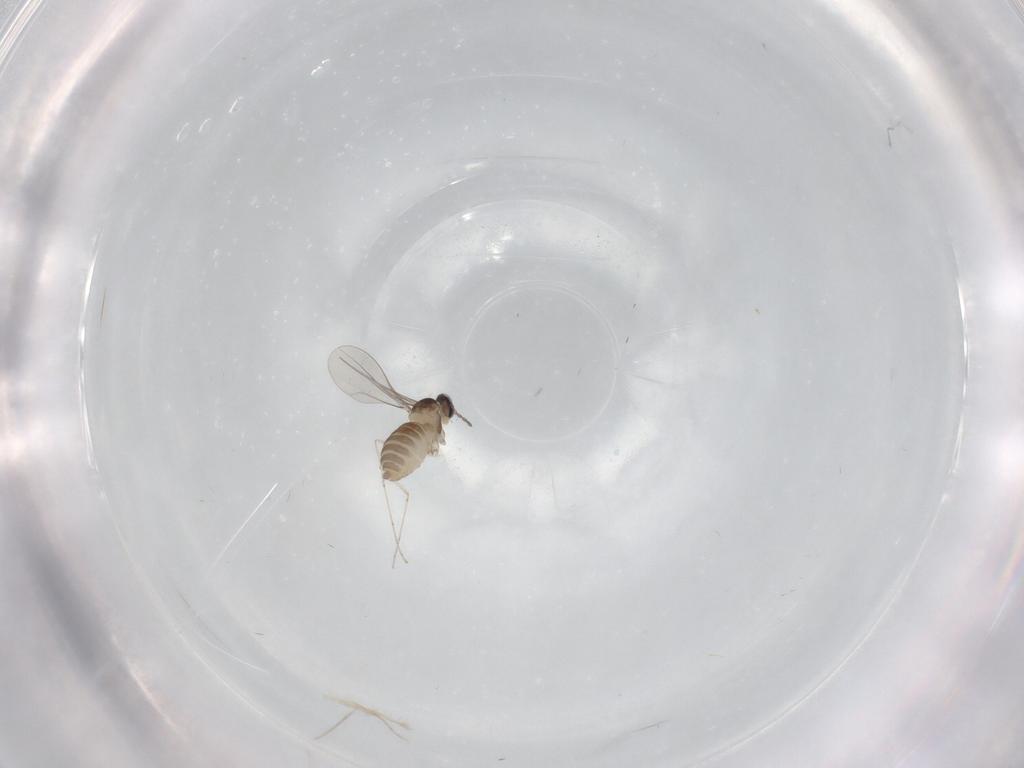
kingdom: Animalia
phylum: Arthropoda
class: Insecta
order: Diptera
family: Cecidomyiidae
